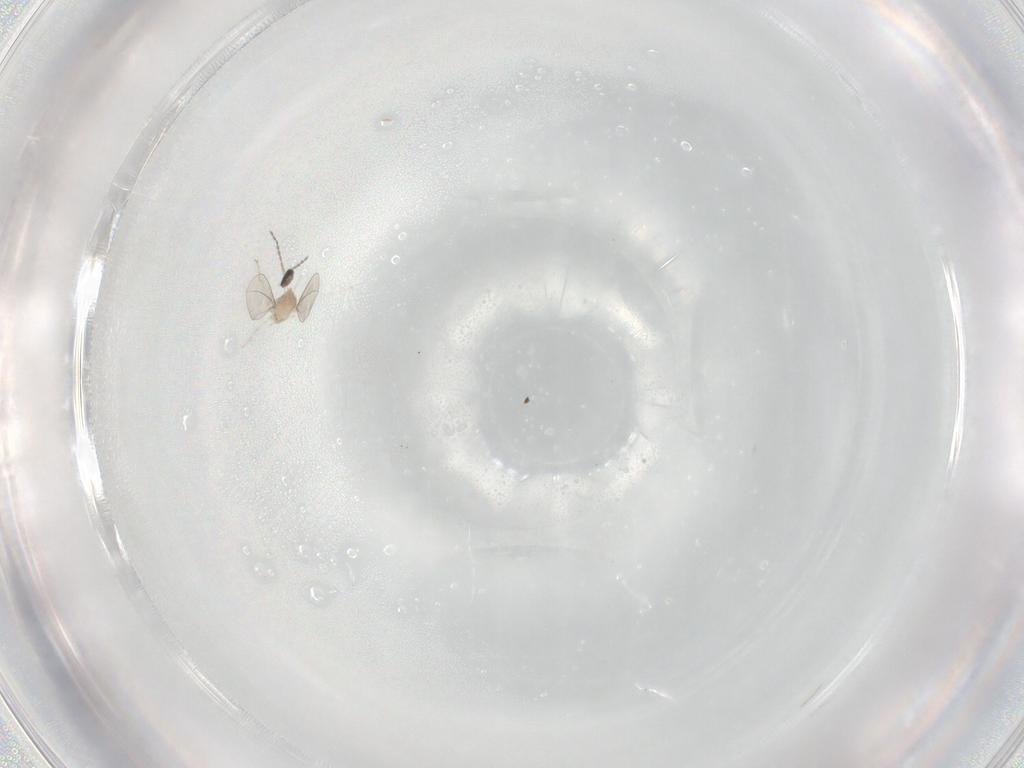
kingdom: Animalia
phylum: Arthropoda
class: Insecta
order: Diptera
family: Cecidomyiidae
